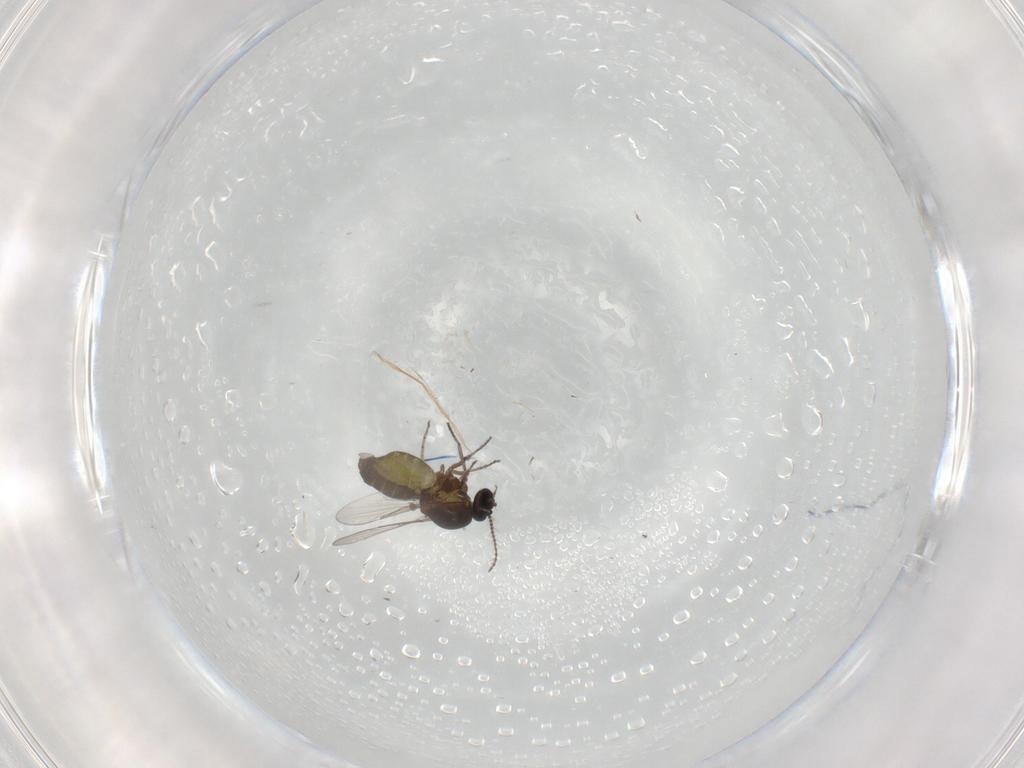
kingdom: Animalia
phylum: Arthropoda
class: Insecta
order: Diptera
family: Ceratopogonidae
